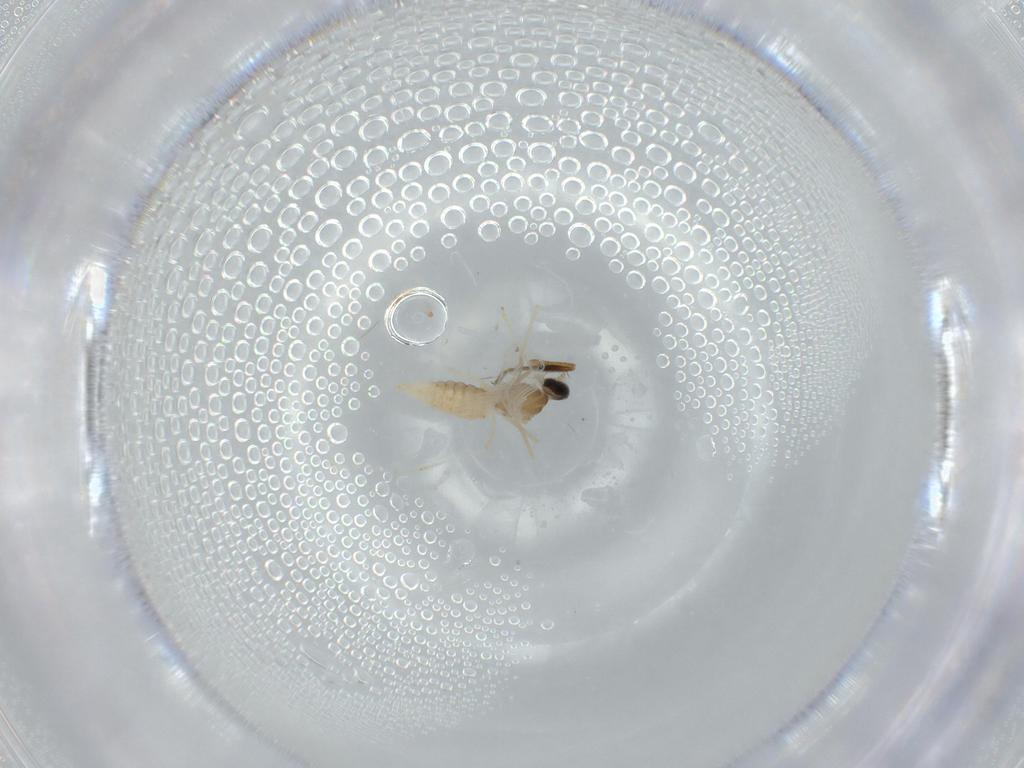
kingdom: Animalia
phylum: Arthropoda
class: Insecta
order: Diptera
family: Cecidomyiidae
